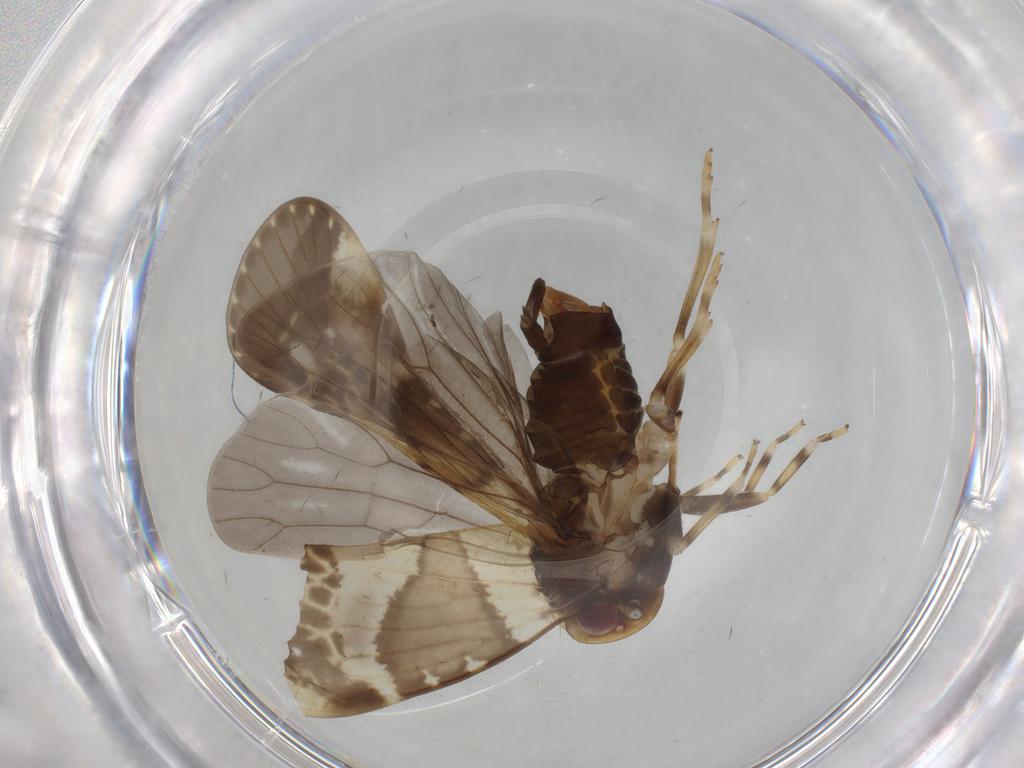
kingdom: Animalia
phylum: Arthropoda
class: Insecta
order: Hemiptera
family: Cixiidae
